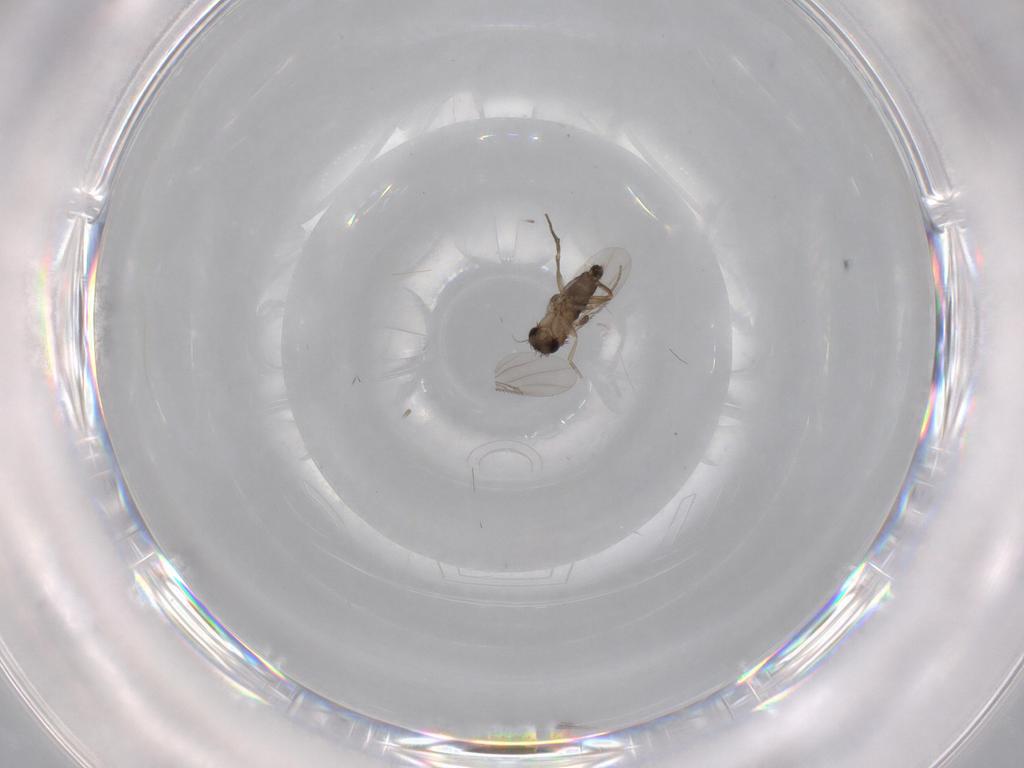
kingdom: Animalia
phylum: Arthropoda
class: Insecta
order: Diptera
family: Phoridae
